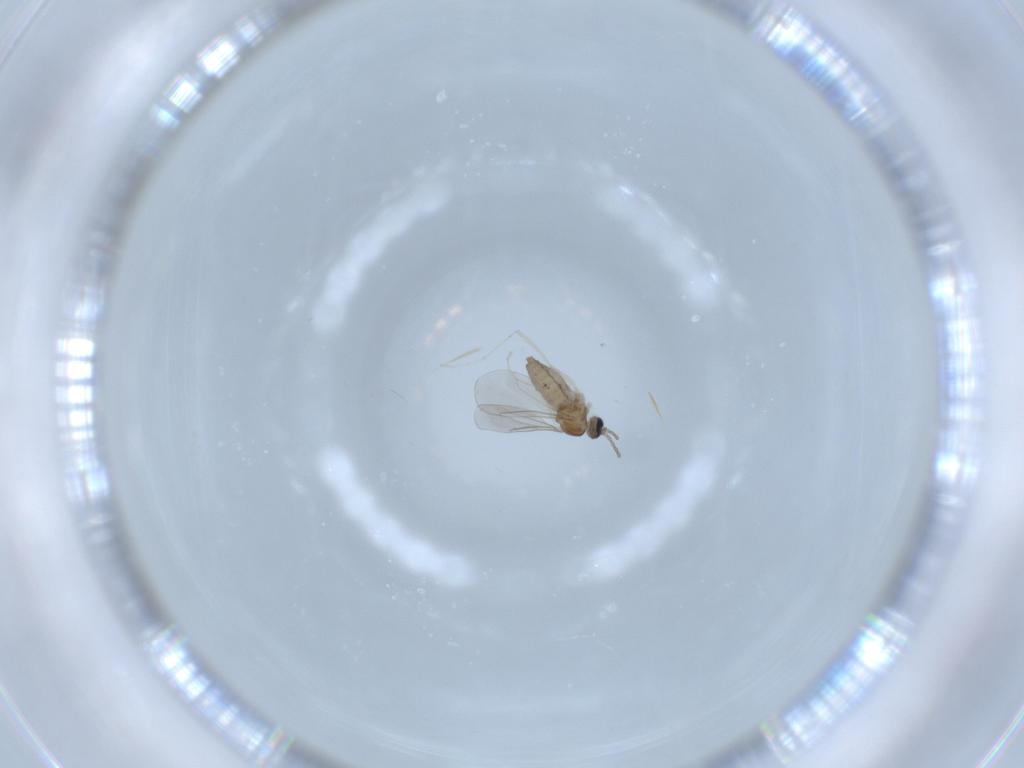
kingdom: Animalia
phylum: Arthropoda
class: Insecta
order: Diptera
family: Cecidomyiidae
